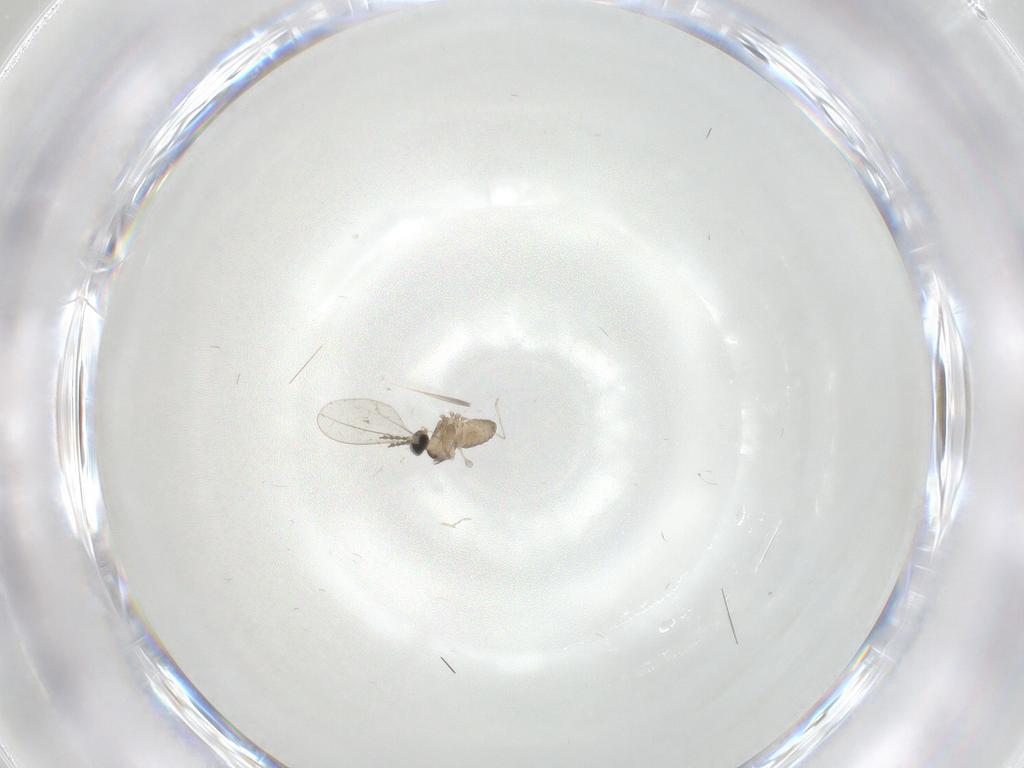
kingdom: Animalia
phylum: Arthropoda
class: Insecta
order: Diptera
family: Cecidomyiidae
